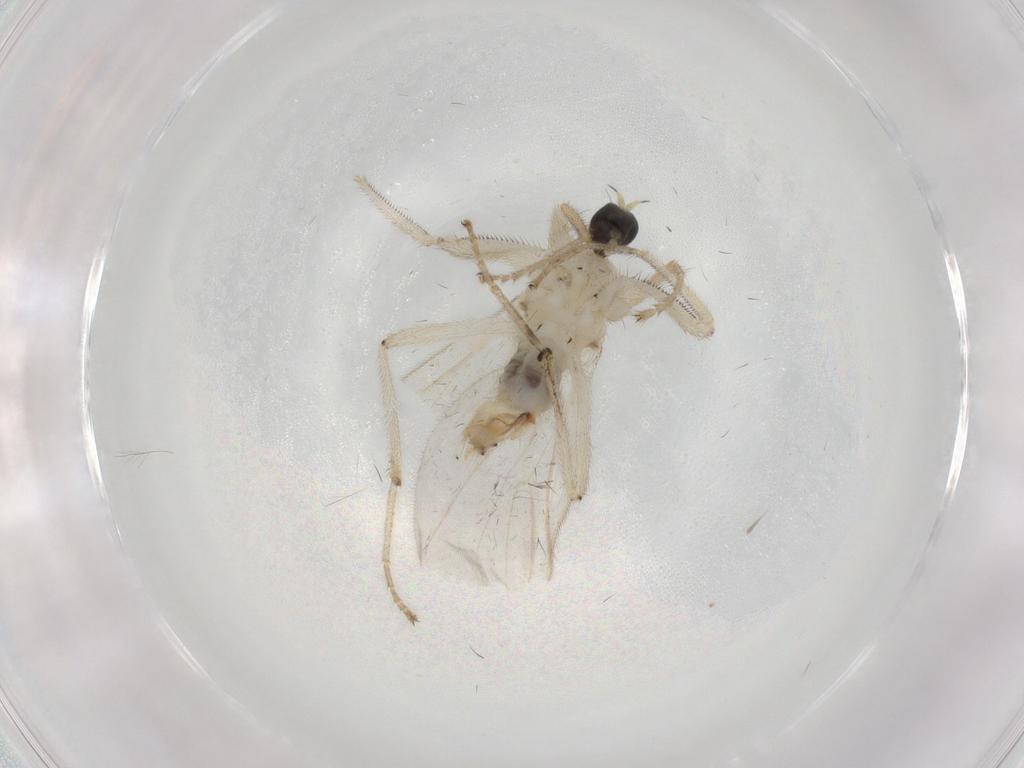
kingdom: Animalia
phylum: Arthropoda
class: Insecta
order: Diptera
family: Hybotidae
